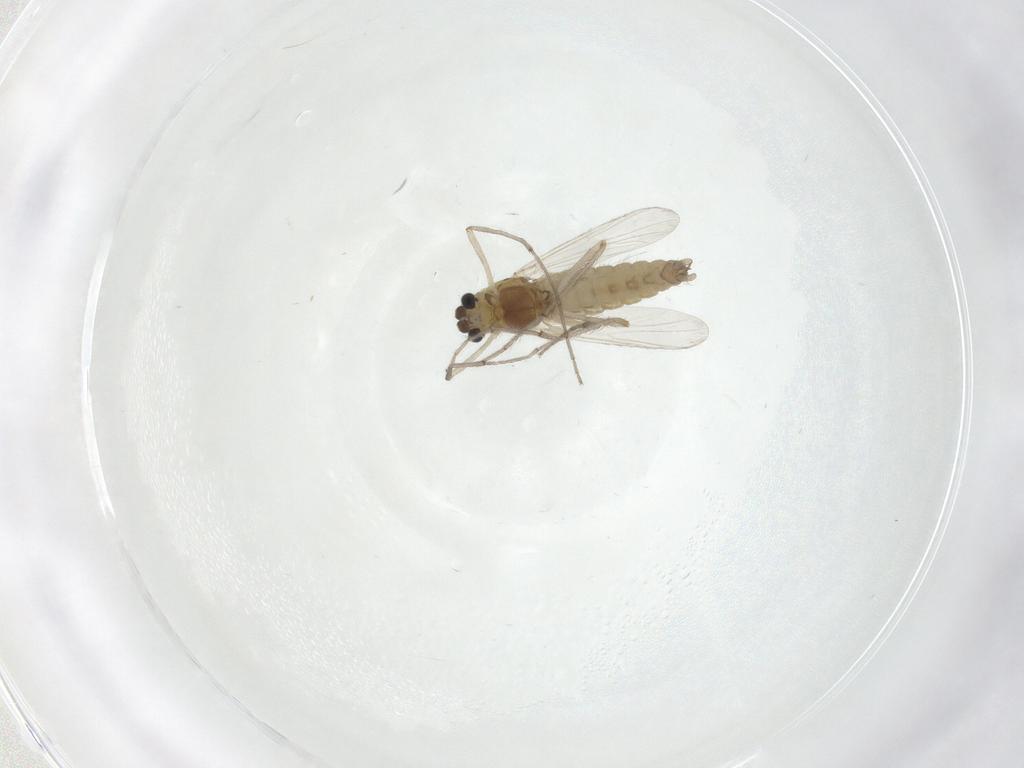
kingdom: Animalia
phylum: Arthropoda
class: Insecta
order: Diptera
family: Chironomidae
